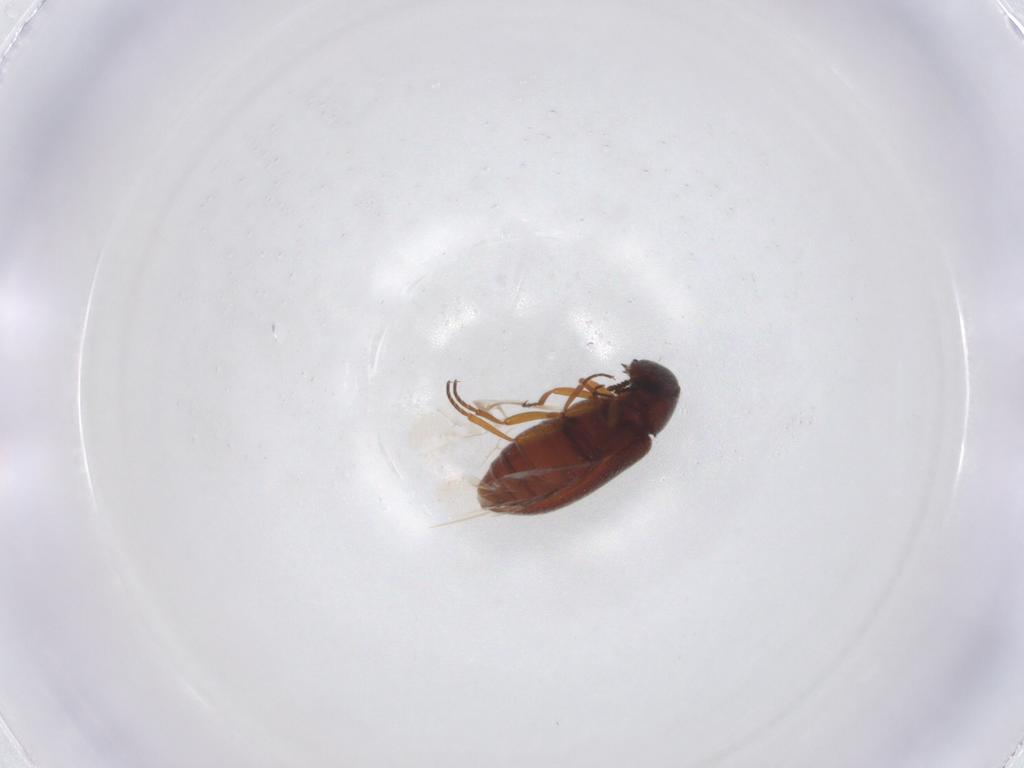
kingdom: Animalia
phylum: Arthropoda
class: Insecta
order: Coleoptera
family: Rhadalidae
